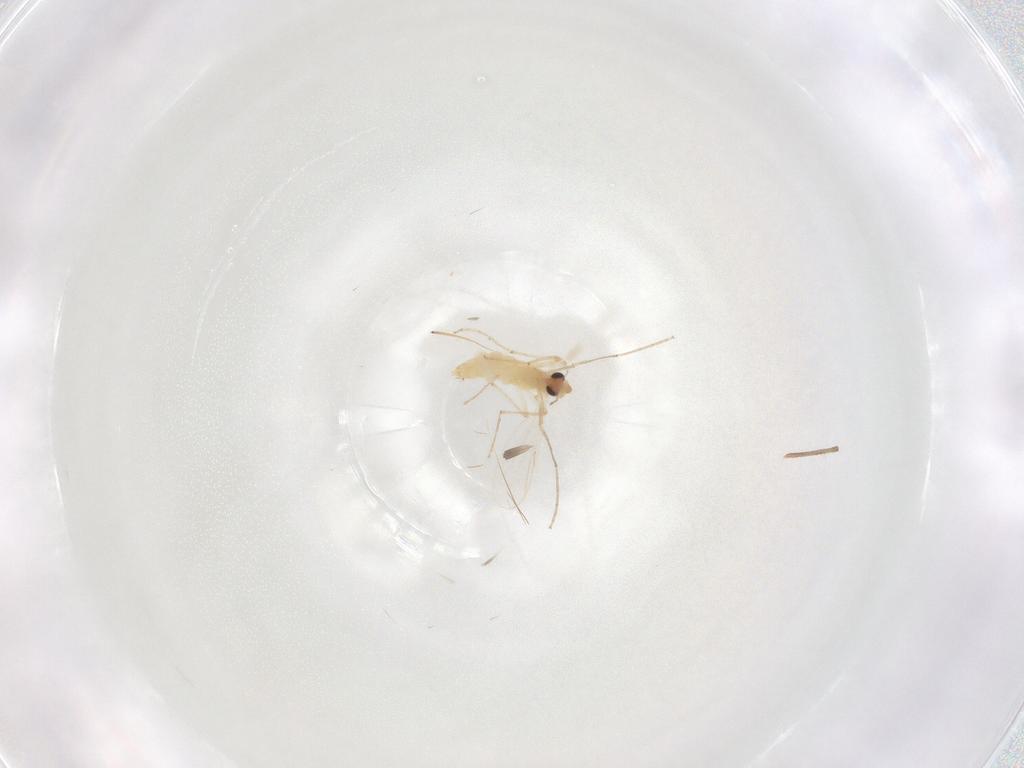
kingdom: Animalia
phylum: Arthropoda
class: Insecta
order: Diptera
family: Chironomidae
